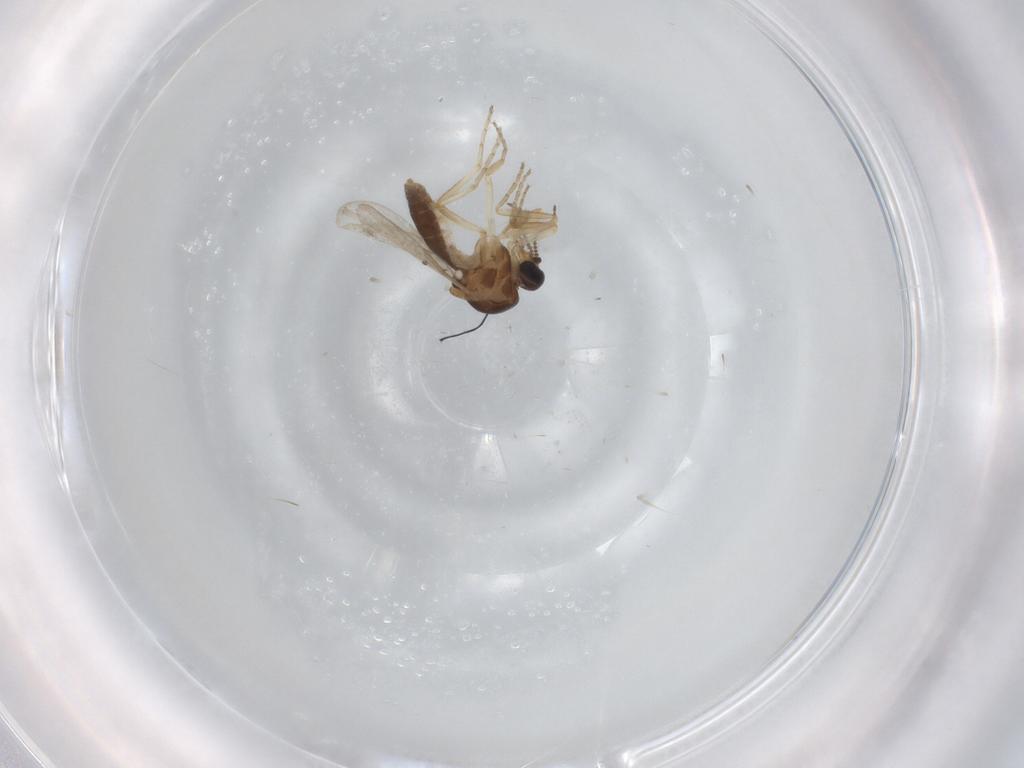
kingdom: Animalia
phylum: Arthropoda
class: Insecta
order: Diptera
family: Ceratopogonidae
